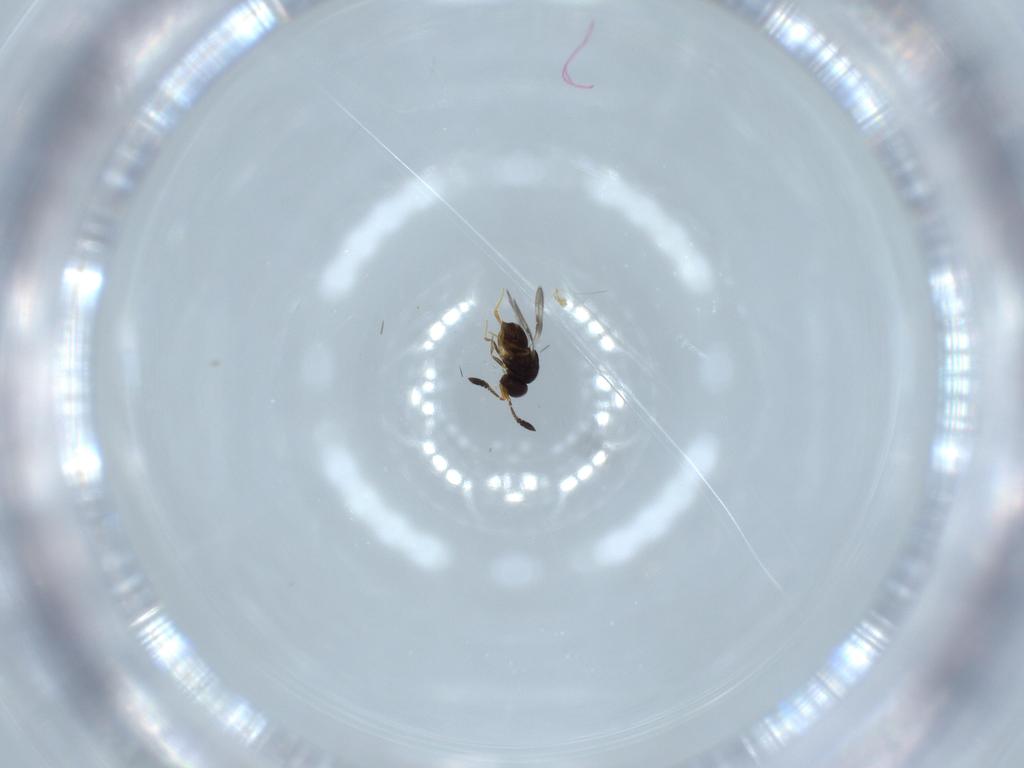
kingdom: Animalia
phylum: Arthropoda
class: Insecta
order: Hymenoptera
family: Ceraphronidae
